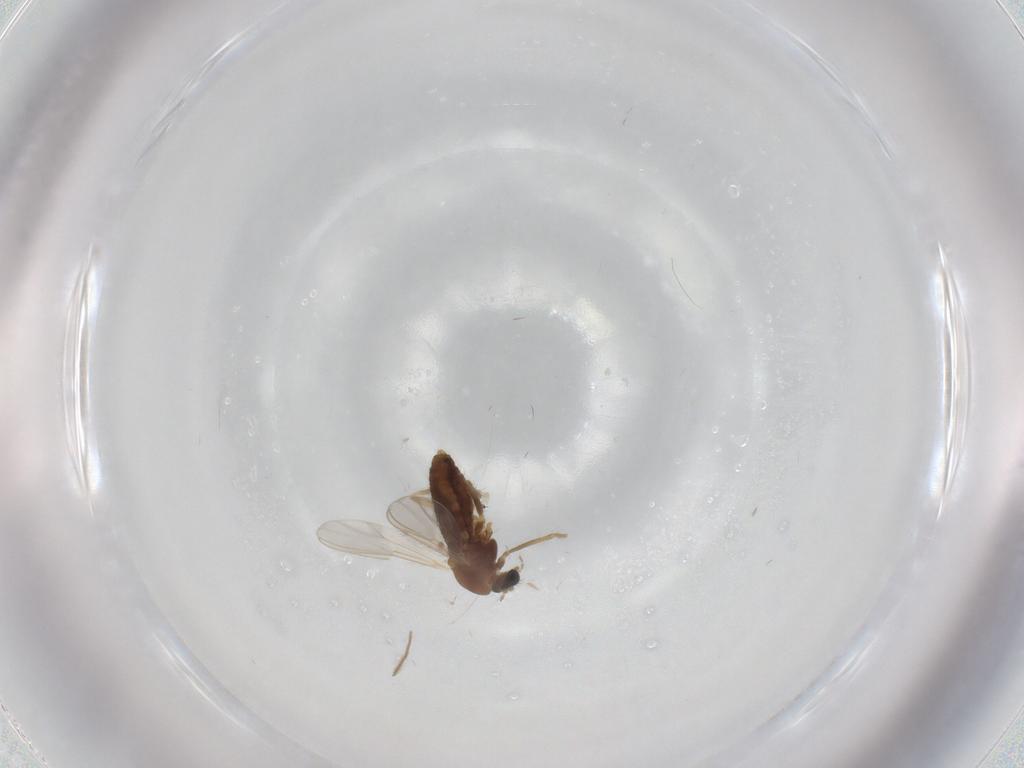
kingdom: Animalia
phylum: Arthropoda
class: Insecta
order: Diptera
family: Chironomidae
